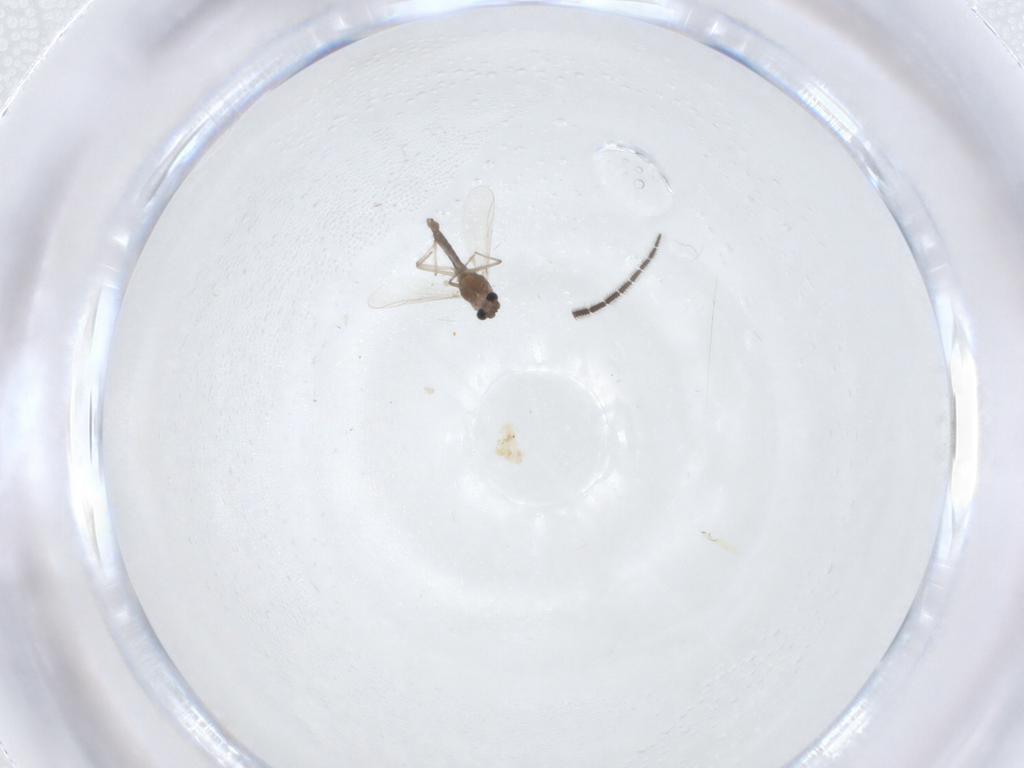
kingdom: Animalia
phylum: Arthropoda
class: Insecta
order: Diptera
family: Chironomidae
